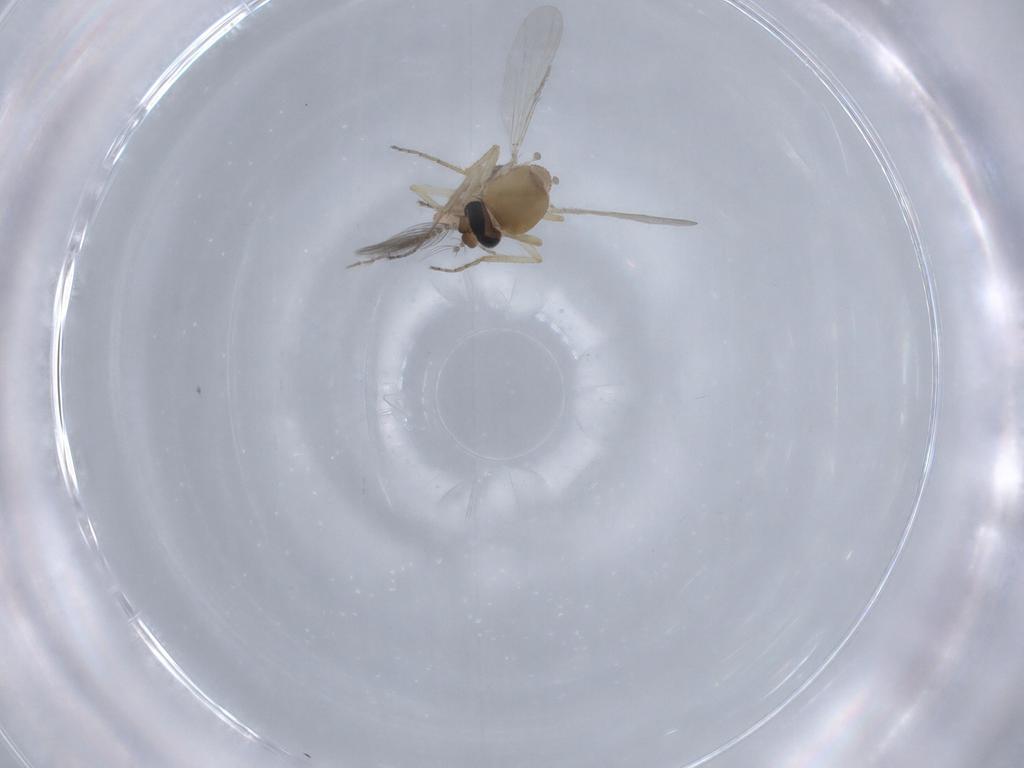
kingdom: Animalia
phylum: Arthropoda
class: Insecta
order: Diptera
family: Ceratopogonidae
